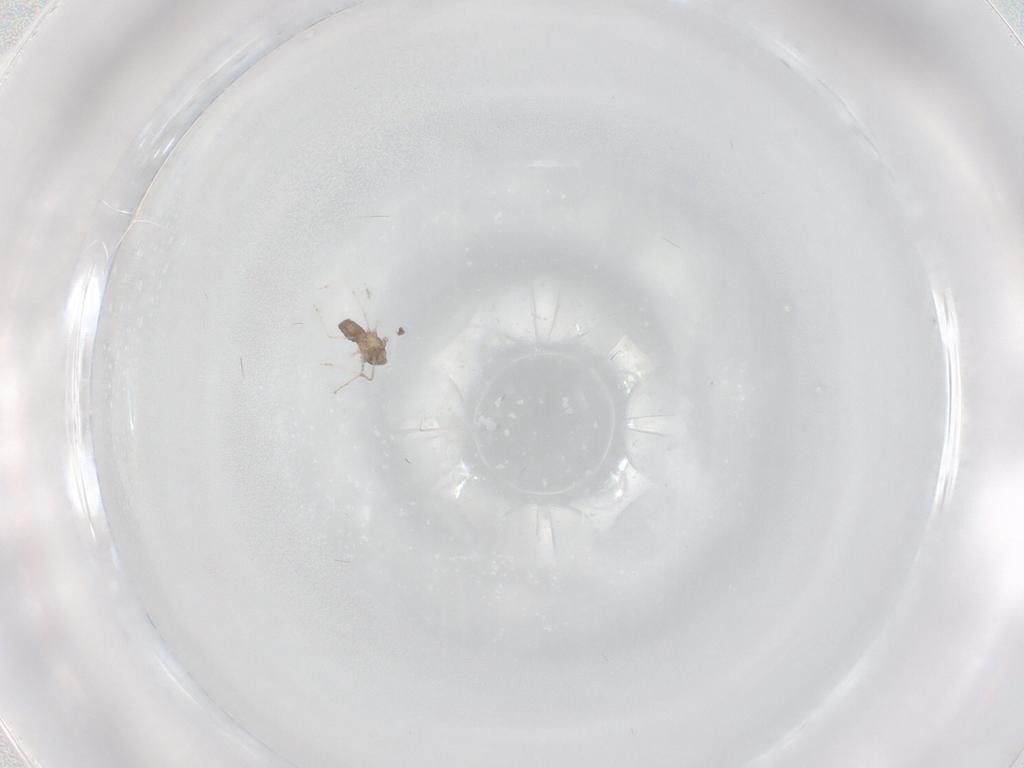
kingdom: Animalia
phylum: Arthropoda
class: Insecta
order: Diptera
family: Cecidomyiidae
